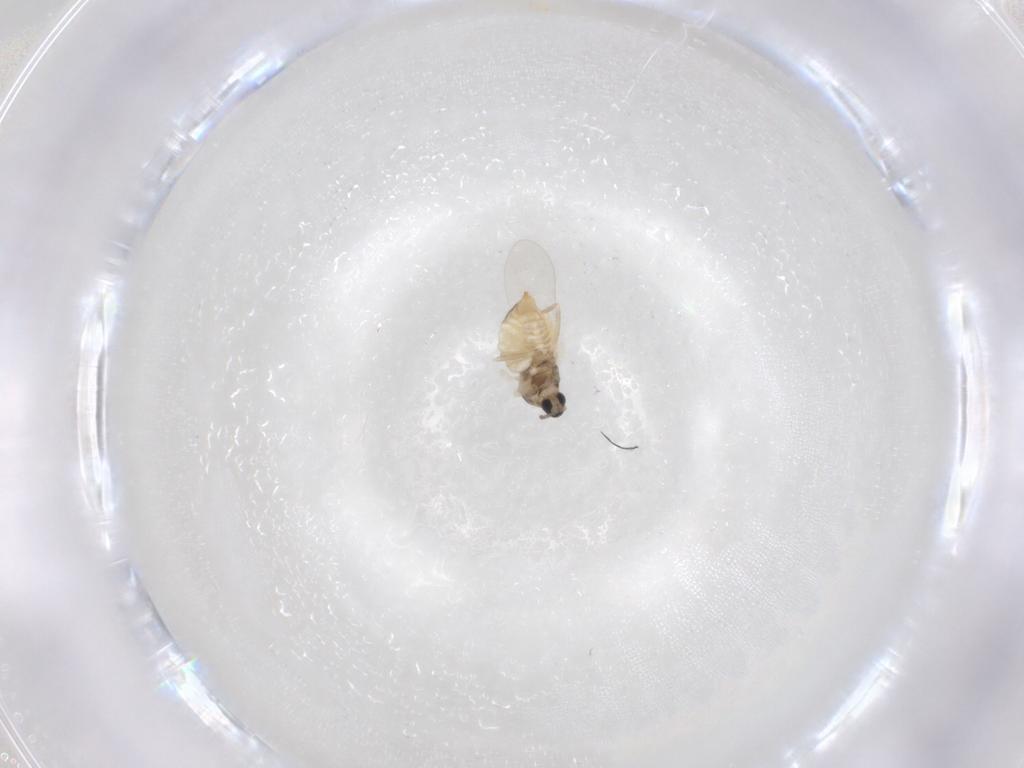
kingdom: Animalia
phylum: Arthropoda
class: Insecta
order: Diptera
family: Cecidomyiidae
